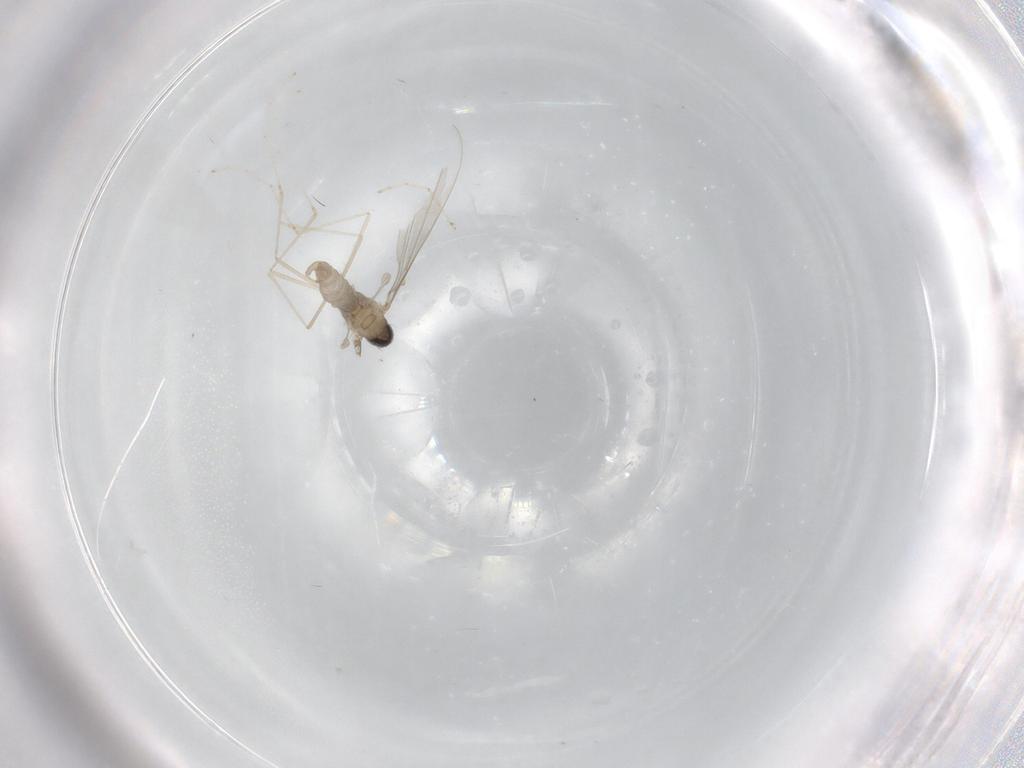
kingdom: Animalia
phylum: Arthropoda
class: Insecta
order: Diptera
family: Cecidomyiidae
